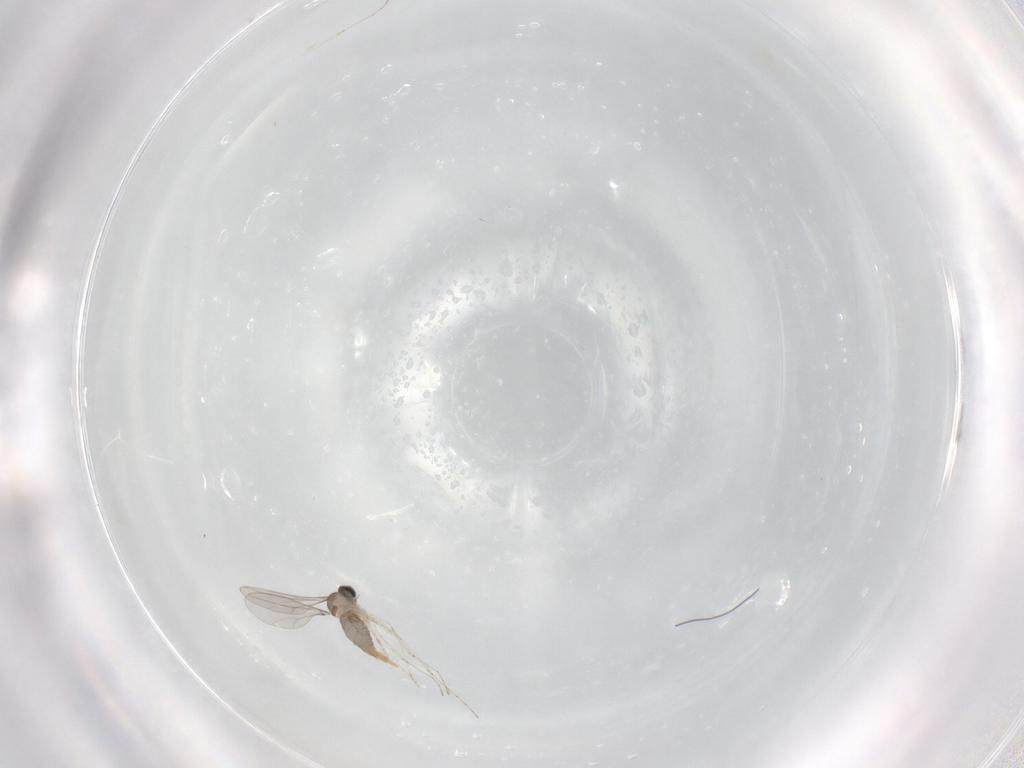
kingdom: Animalia
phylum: Arthropoda
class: Insecta
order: Diptera
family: Cecidomyiidae
